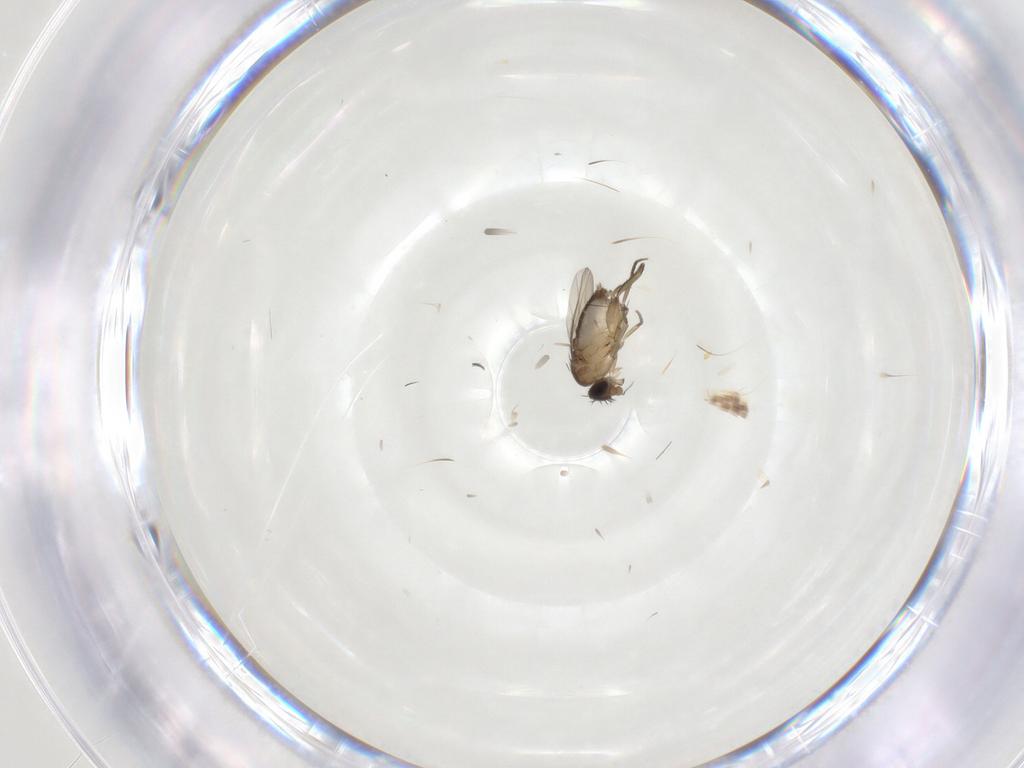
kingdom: Animalia
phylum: Arthropoda
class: Insecta
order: Diptera
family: Phoridae
